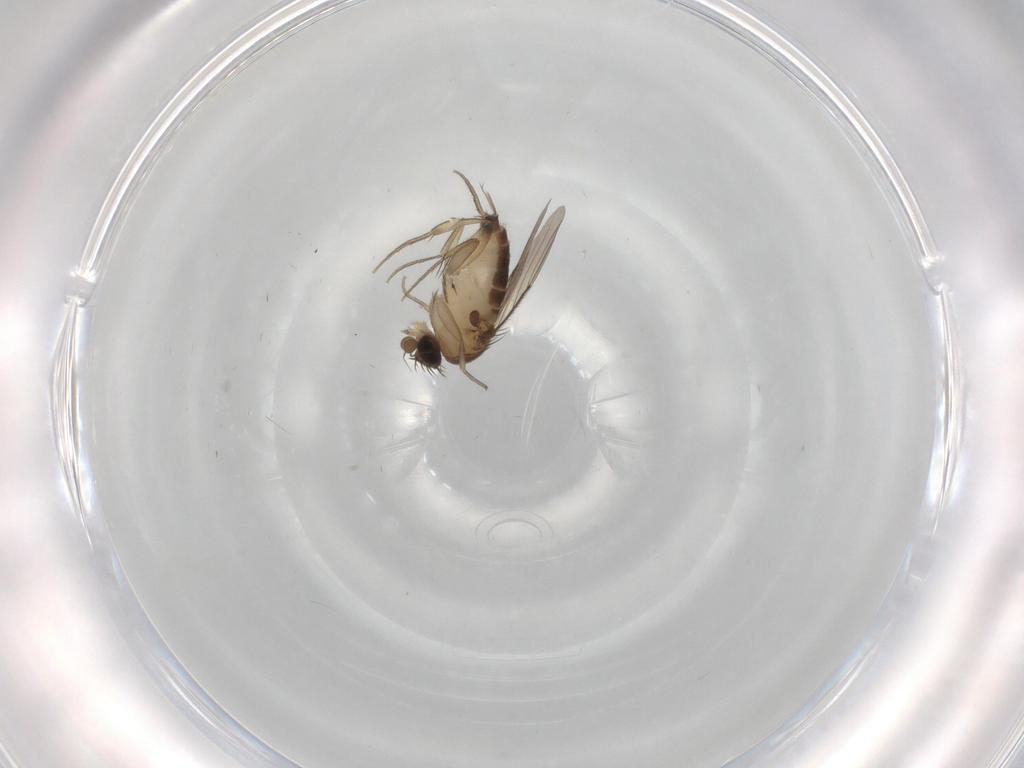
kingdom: Animalia
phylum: Arthropoda
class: Insecta
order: Diptera
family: Phoridae
